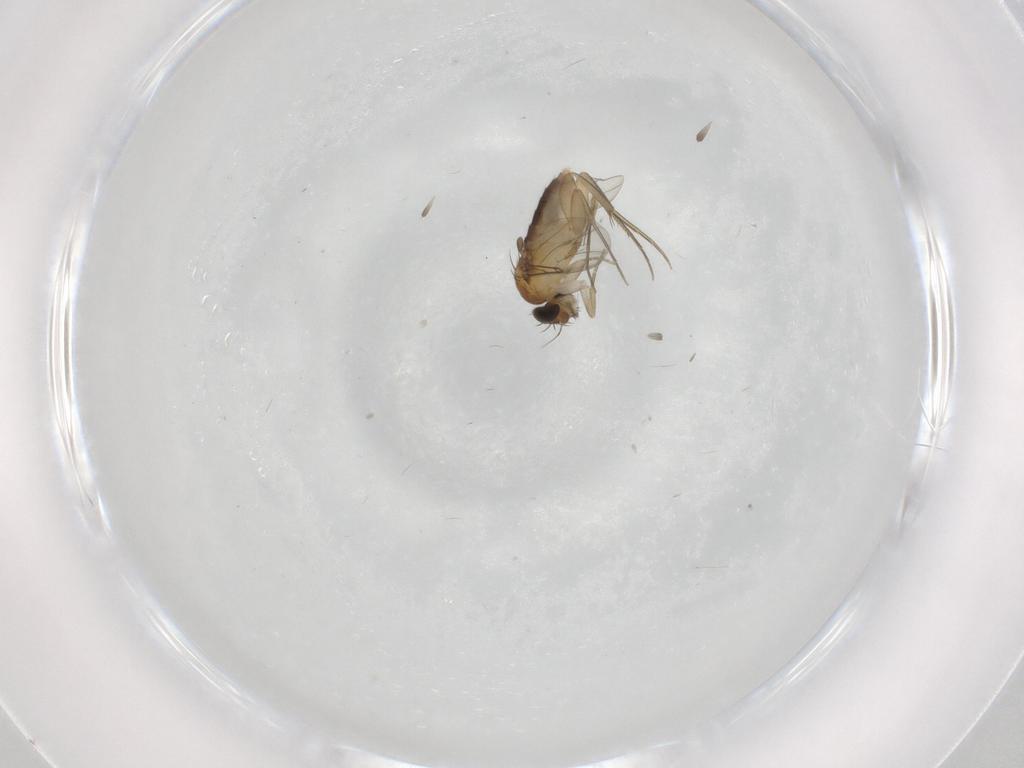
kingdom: Animalia
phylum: Arthropoda
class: Insecta
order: Diptera
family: Phoridae
